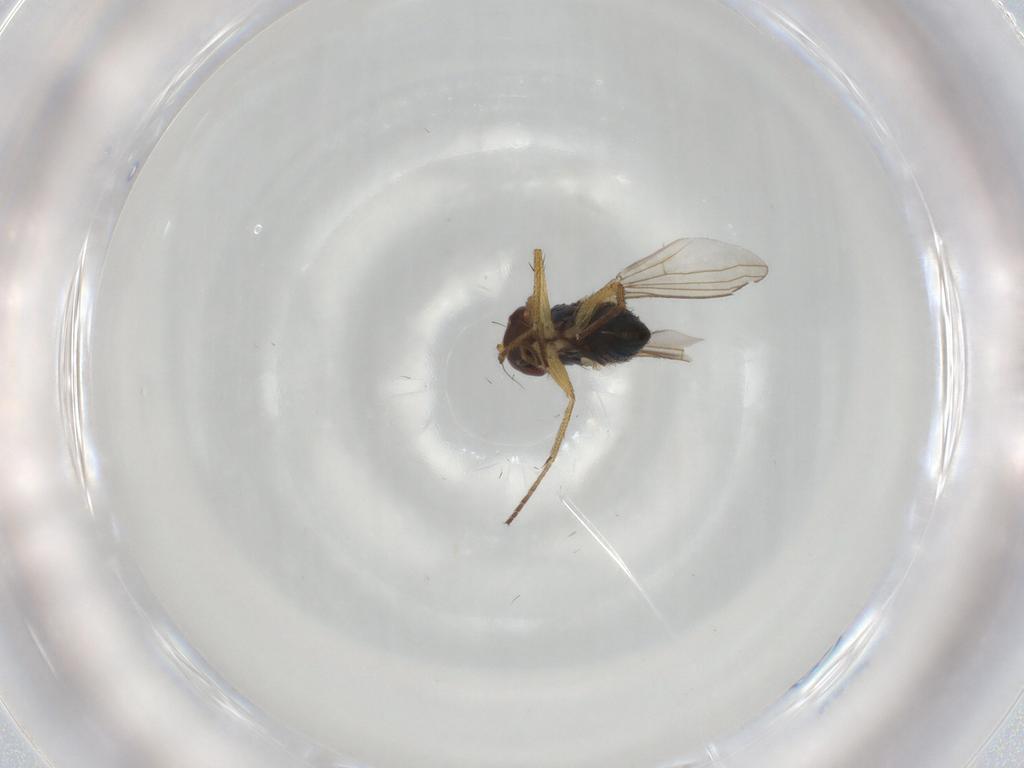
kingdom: Animalia
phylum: Arthropoda
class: Insecta
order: Diptera
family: Dolichopodidae
